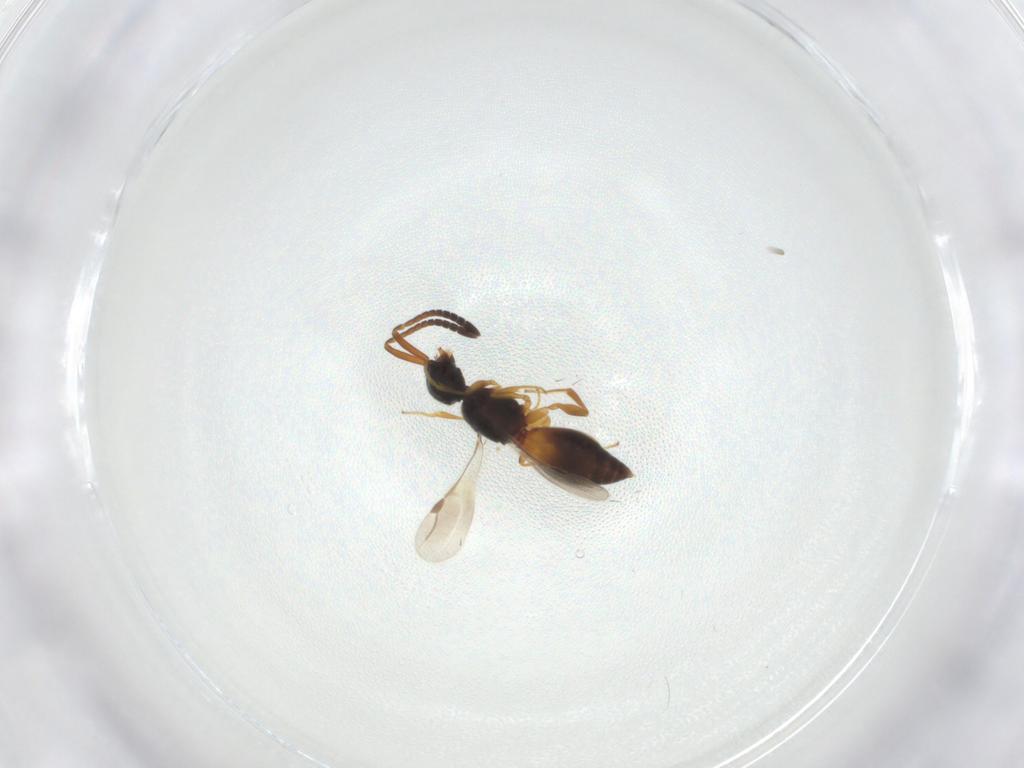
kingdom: Animalia
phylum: Arthropoda
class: Insecta
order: Hymenoptera
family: Megaspilidae
